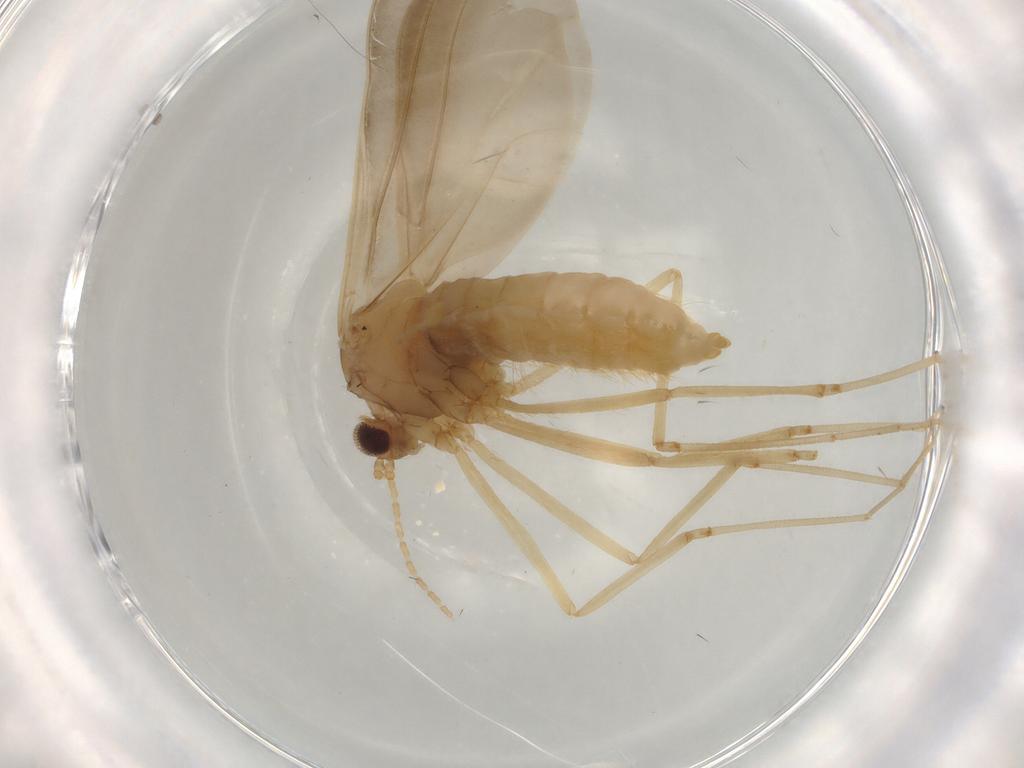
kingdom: Animalia
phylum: Arthropoda
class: Insecta
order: Diptera
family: Cecidomyiidae
